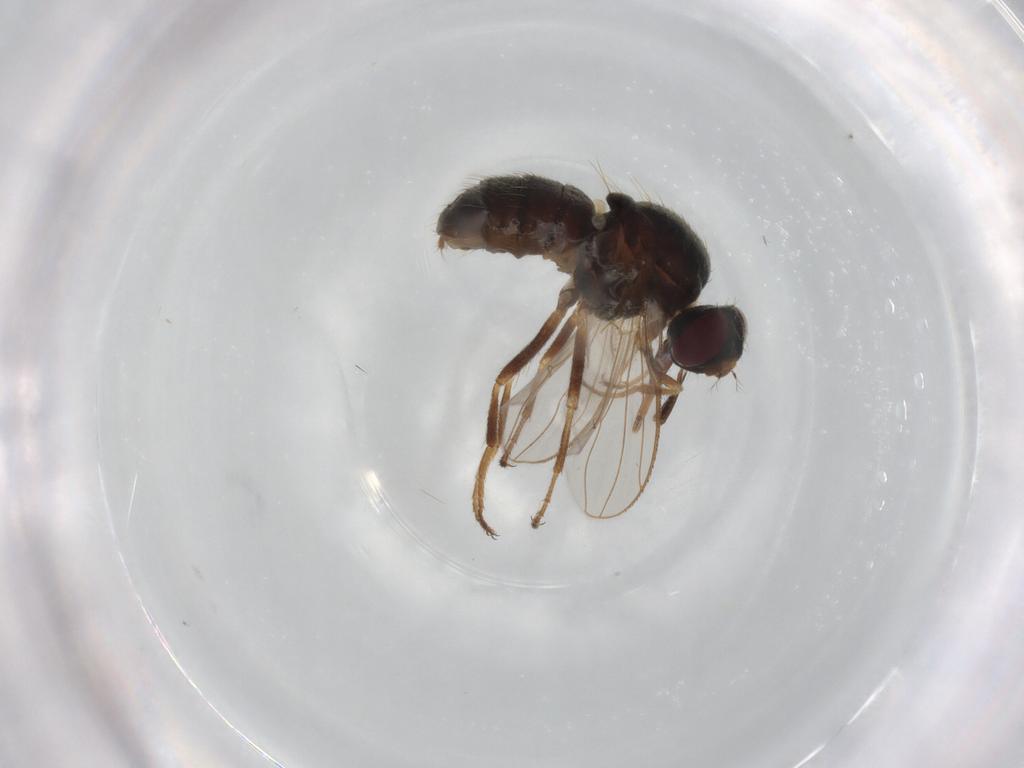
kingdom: Animalia
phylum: Arthropoda
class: Insecta
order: Diptera
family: Muscidae
